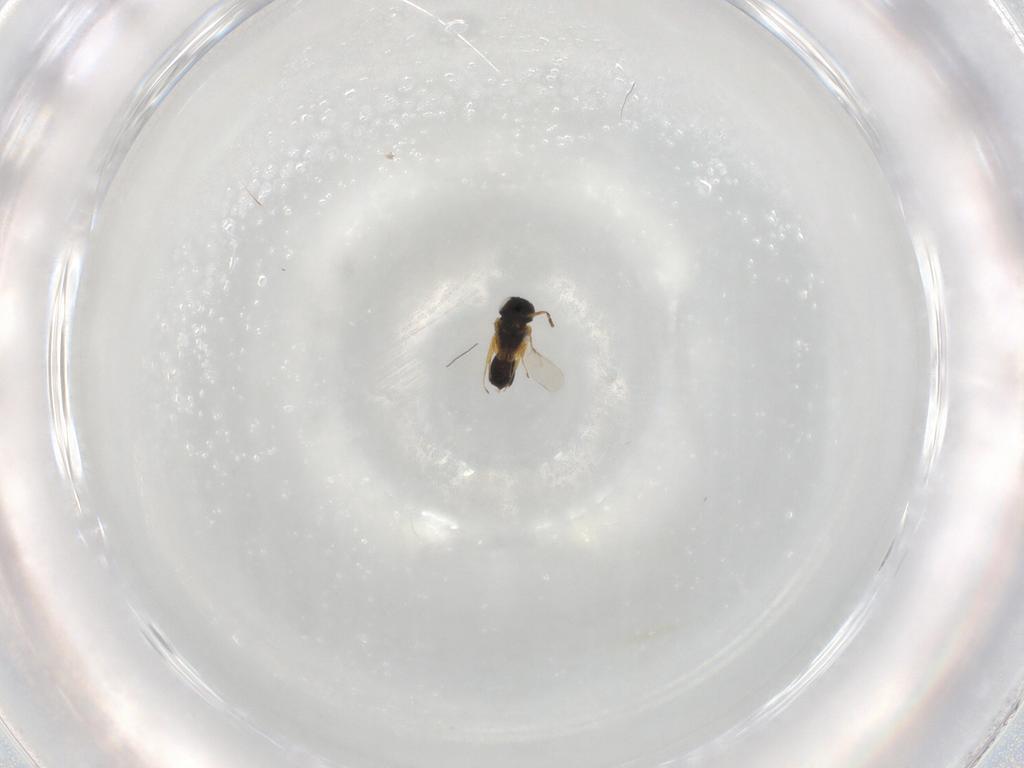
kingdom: Animalia
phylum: Arthropoda
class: Insecta
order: Hymenoptera
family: Scelionidae
